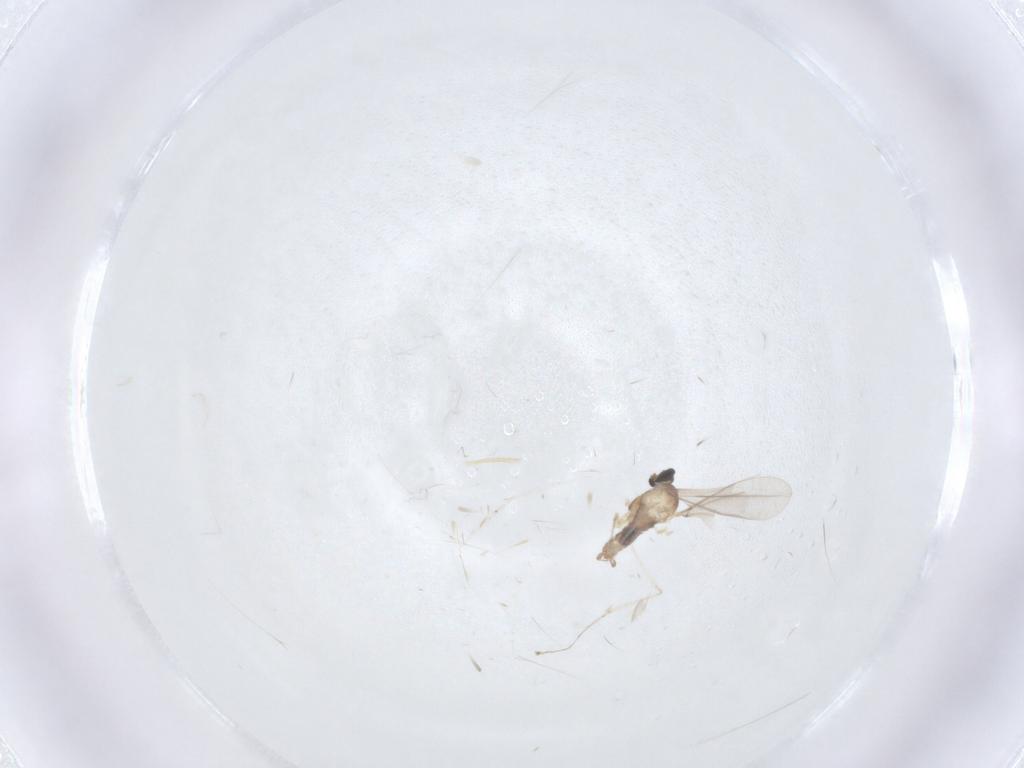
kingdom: Animalia
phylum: Arthropoda
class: Insecta
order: Diptera
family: Cecidomyiidae
